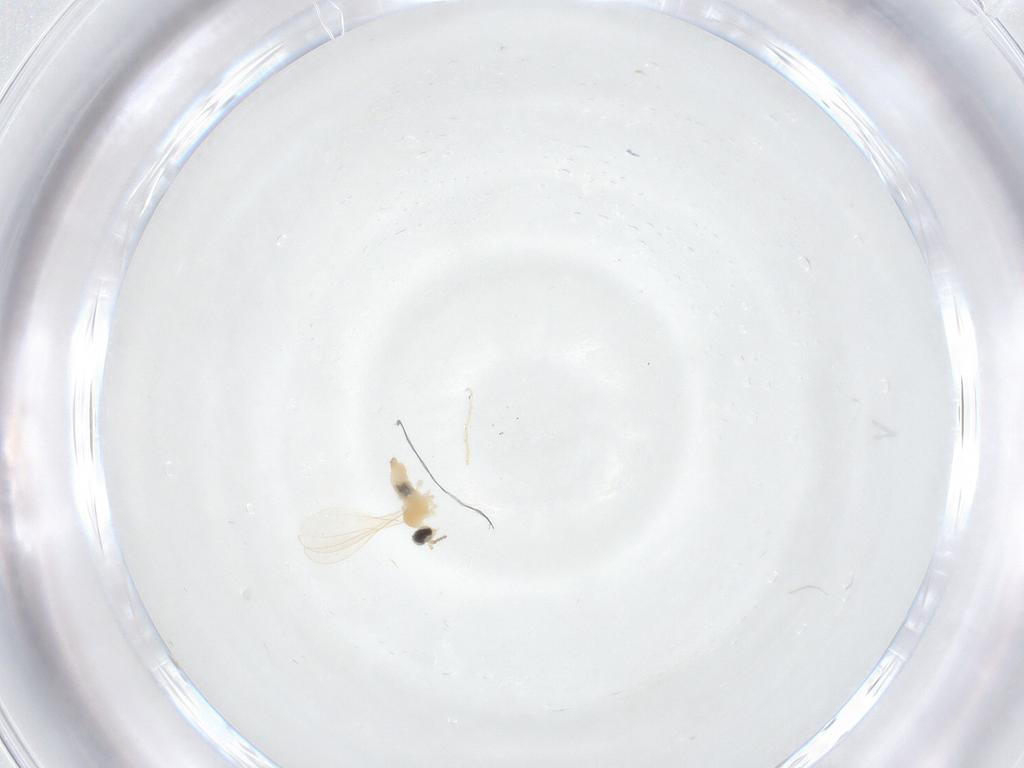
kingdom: Animalia
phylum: Arthropoda
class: Insecta
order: Diptera
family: Cecidomyiidae
